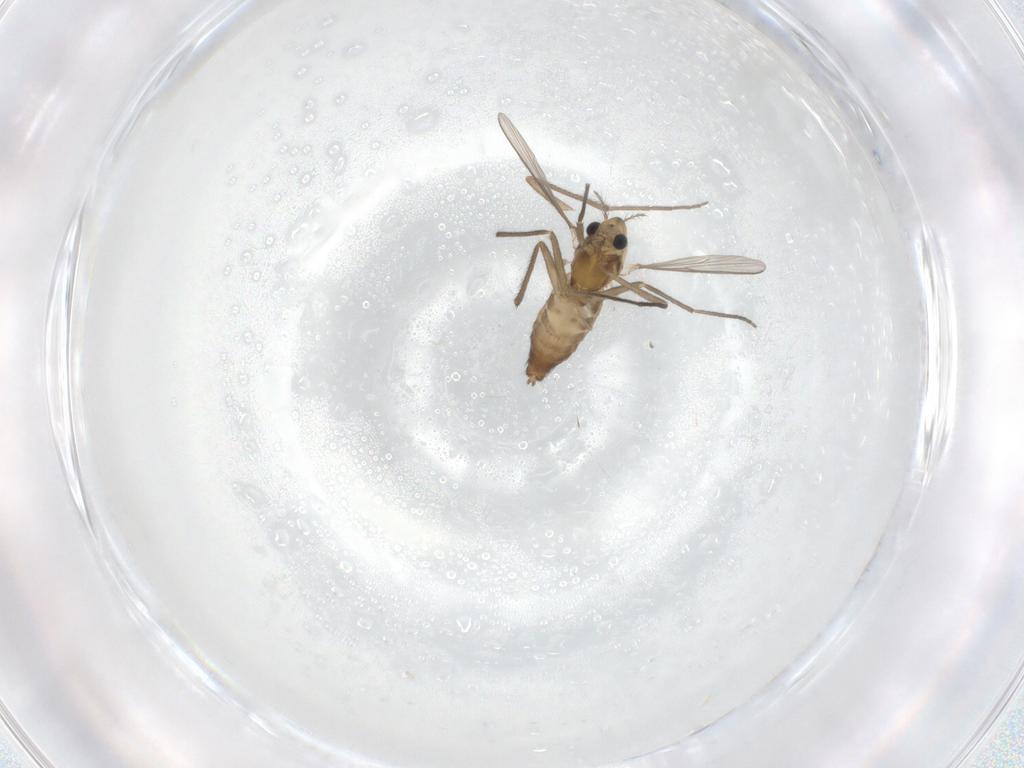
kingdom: Animalia
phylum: Arthropoda
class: Insecta
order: Diptera
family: Chironomidae
